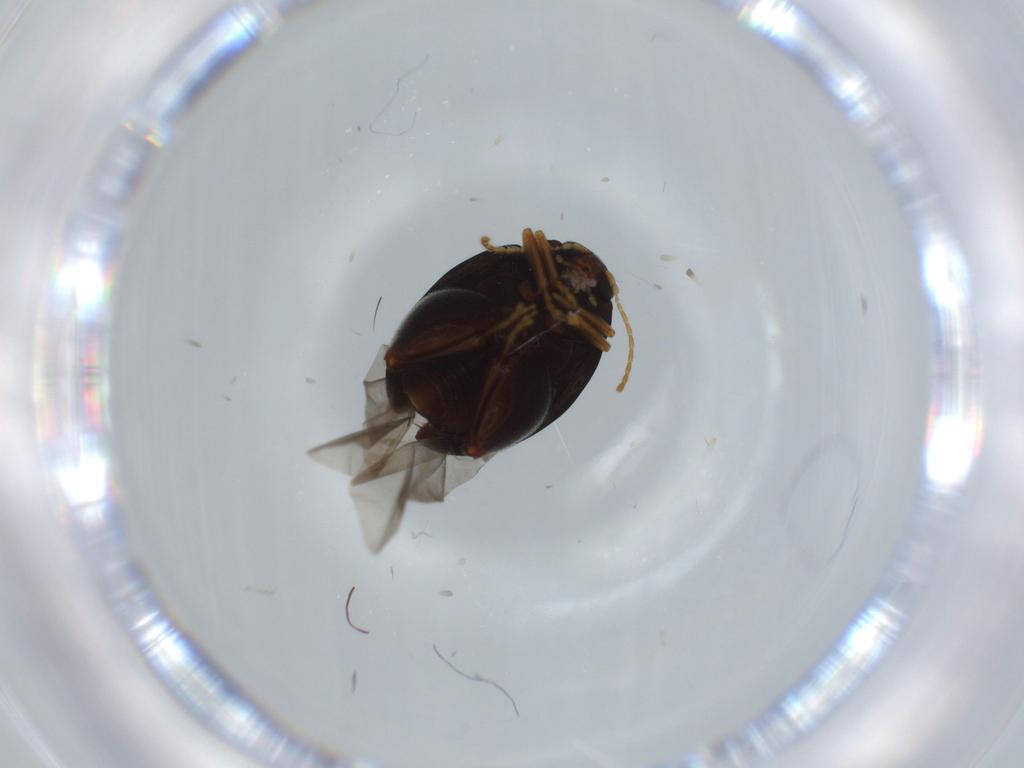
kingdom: Animalia
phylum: Arthropoda
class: Insecta
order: Coleoptera
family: Chrysomelidae
